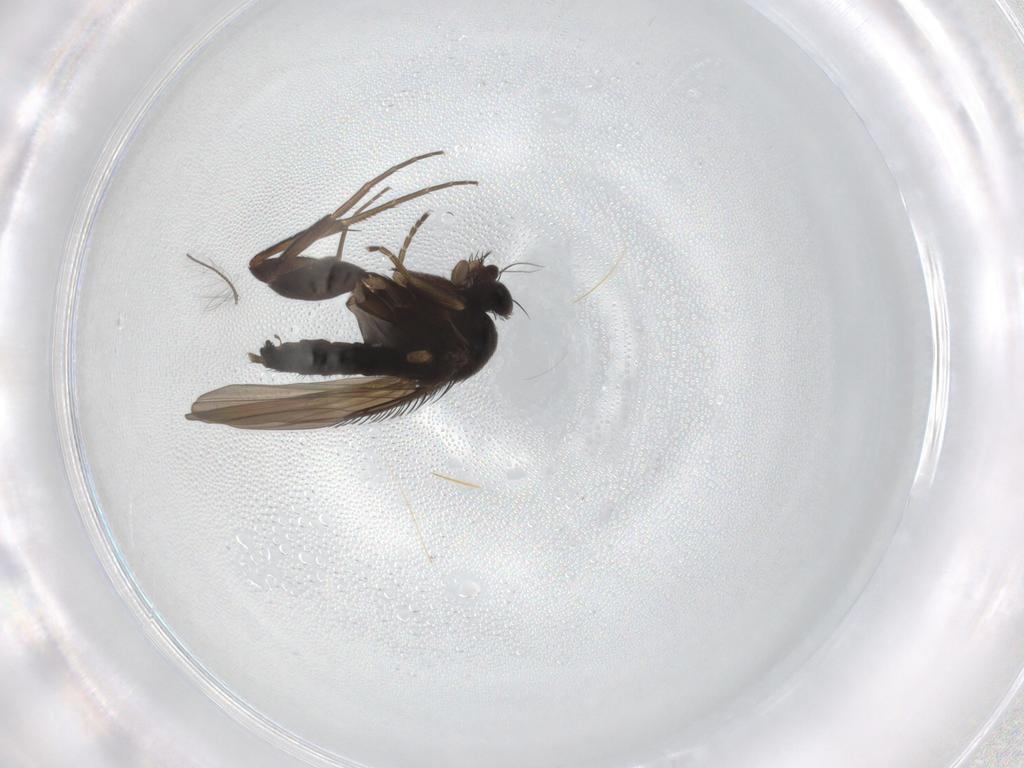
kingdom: Animalia
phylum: Arthropoda
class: Insecta
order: Diptera
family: Phoridae
